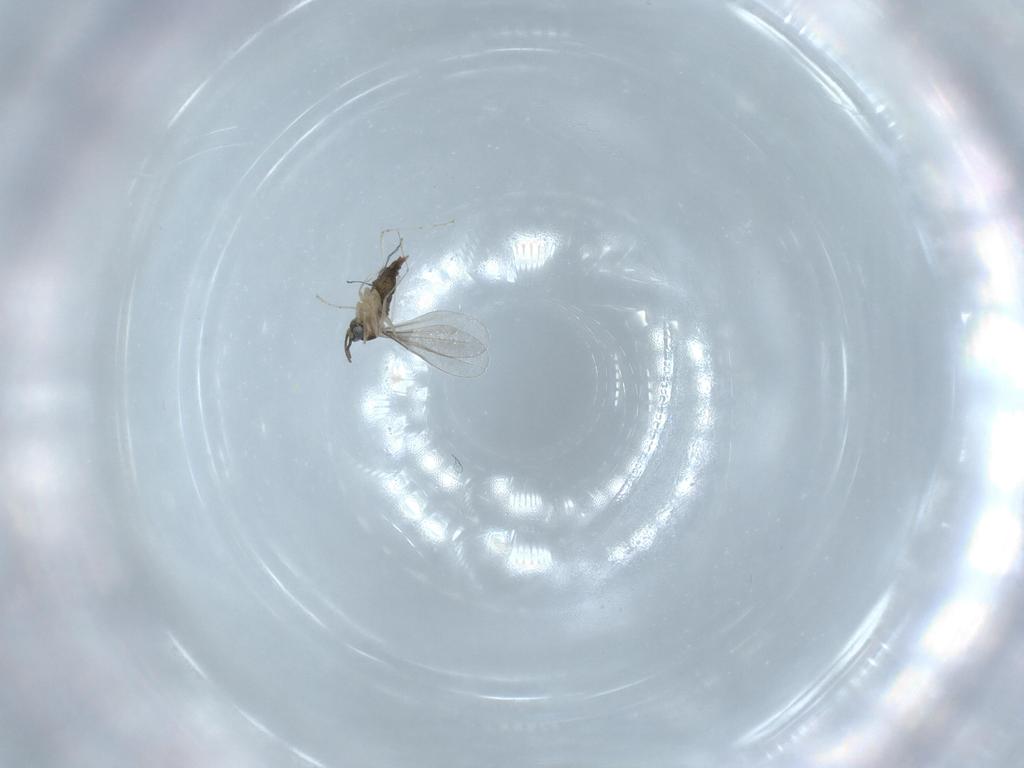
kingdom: Animalia
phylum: Arthropoda
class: Insecta
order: Diptera
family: Cecidomyiidae
